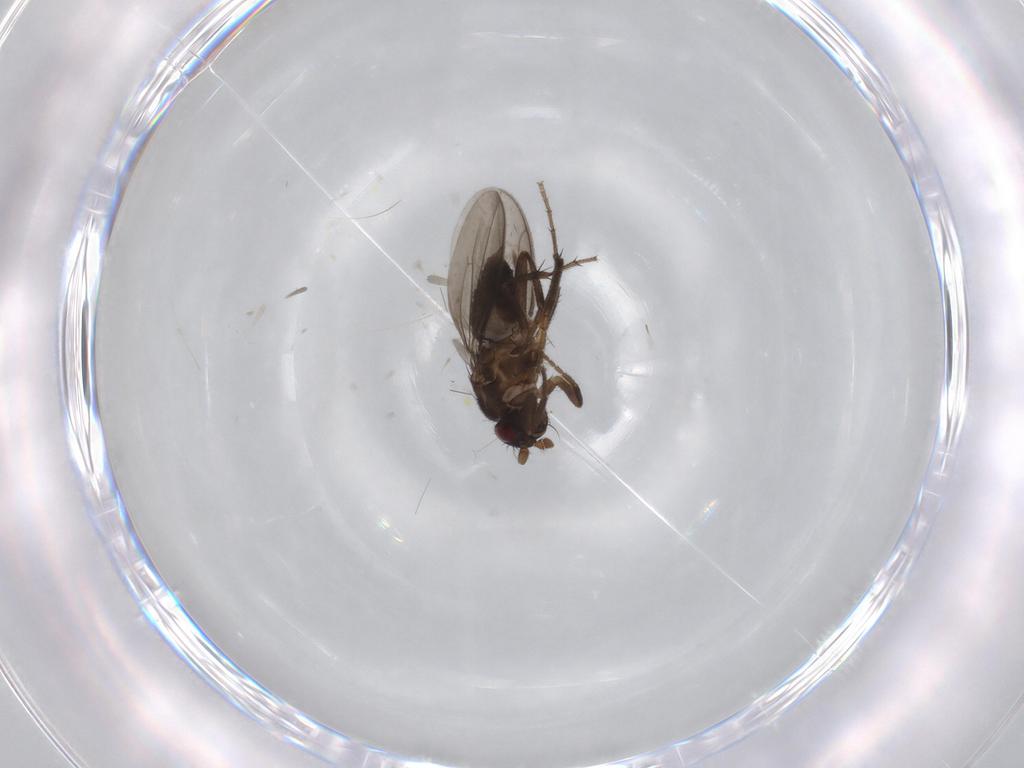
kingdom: Animalia
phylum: Arthropoda
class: Insecta
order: Diptera
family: Sphaeroceridae
